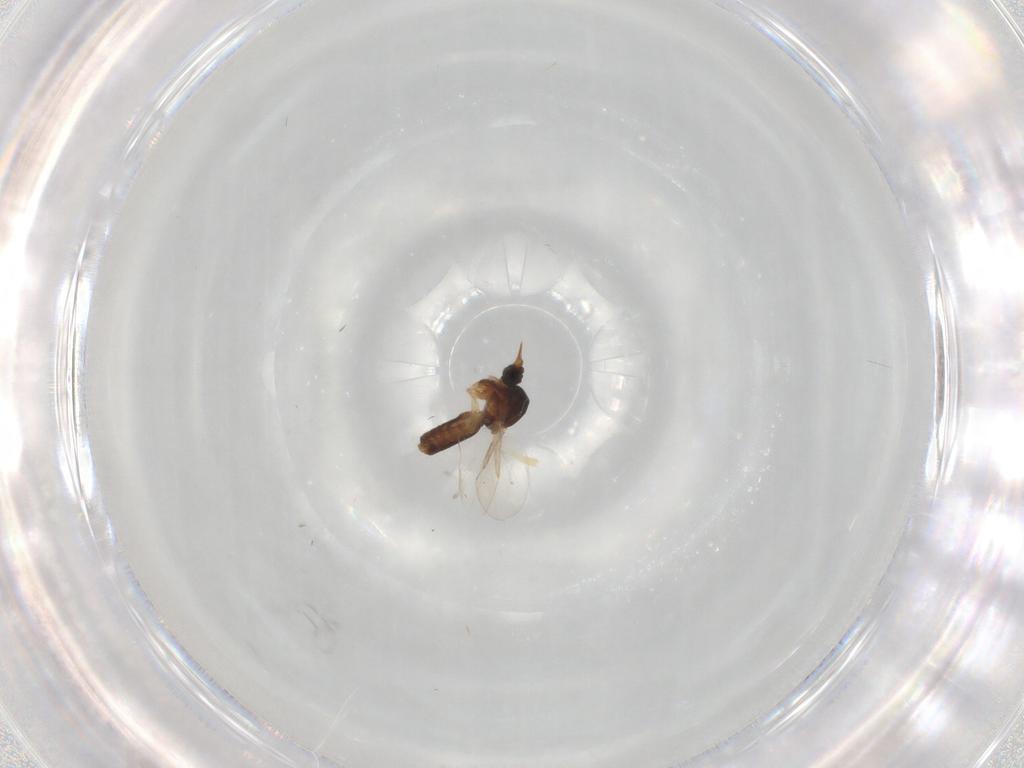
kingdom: Animalia
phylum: Arthropoda
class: Insecta
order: Diptera
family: Ceratopogonidae
